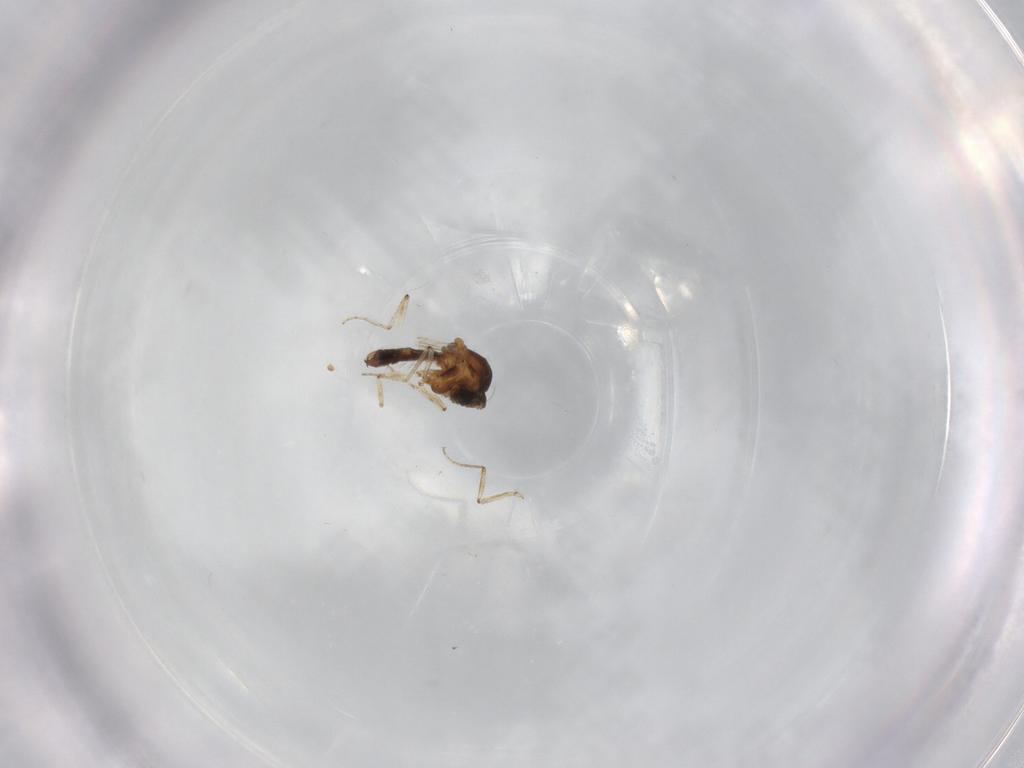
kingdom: Animalia
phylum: Arthropoda
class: Insecta
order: Diptera
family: Ceratopogonidae
